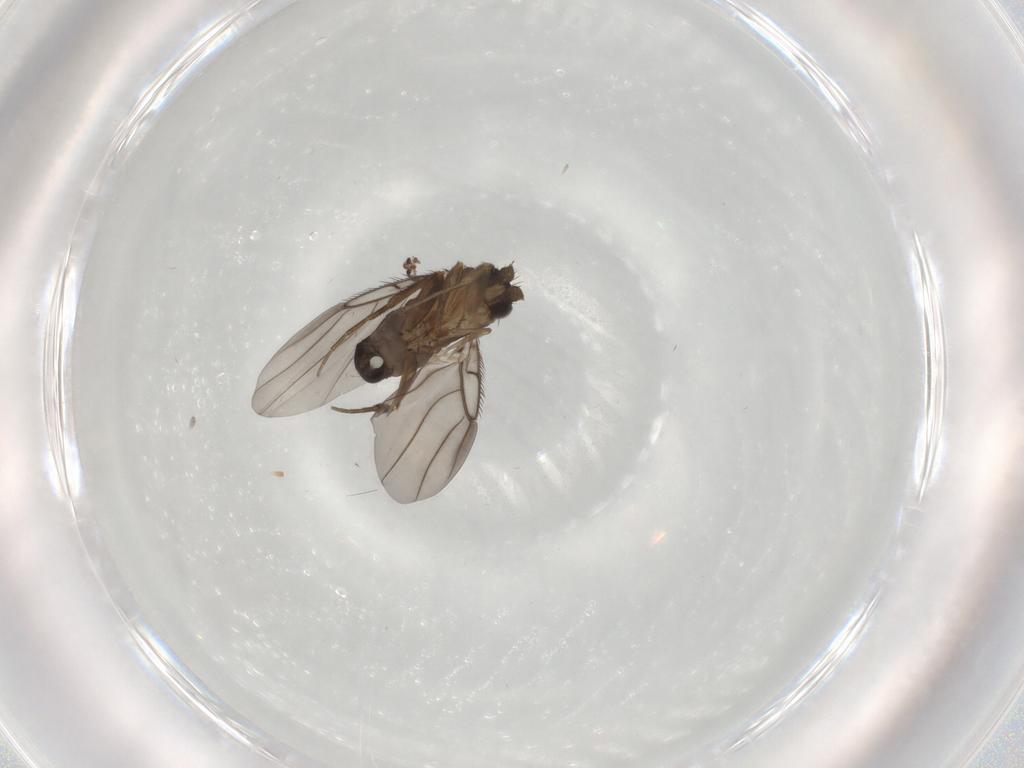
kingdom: Animalia
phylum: Arthropoda
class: Insecta
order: Diptera
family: Phoridae
